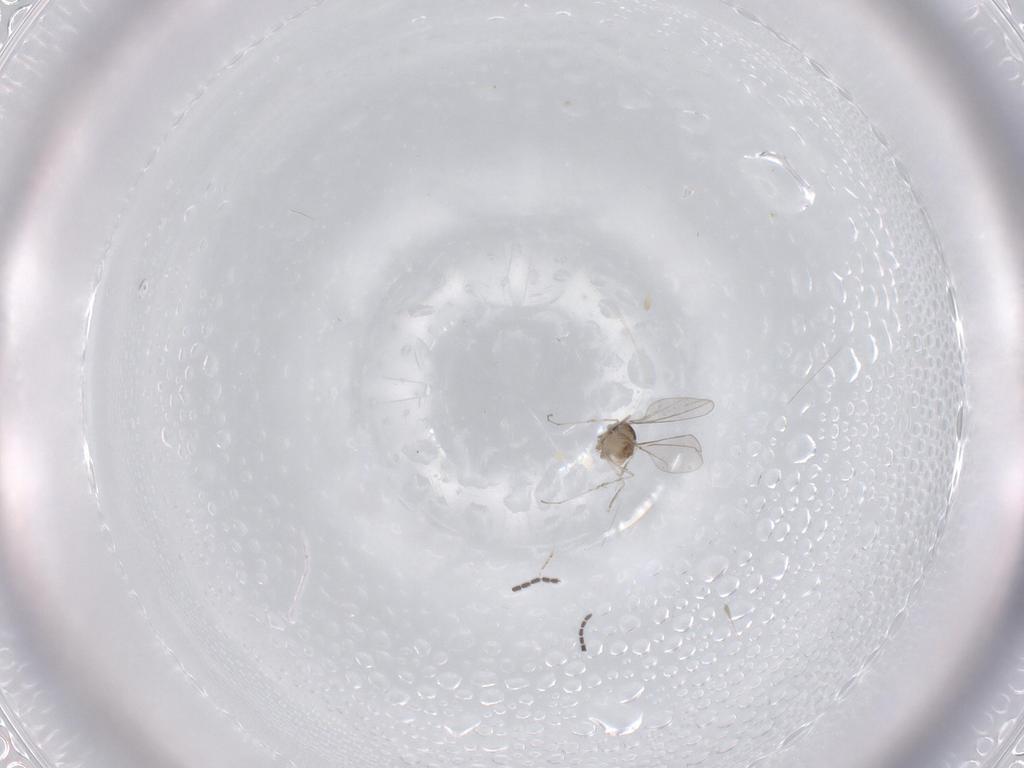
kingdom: Animalia
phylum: Arthropoda
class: Insecta
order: Diptera
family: Cecidomyiidae
